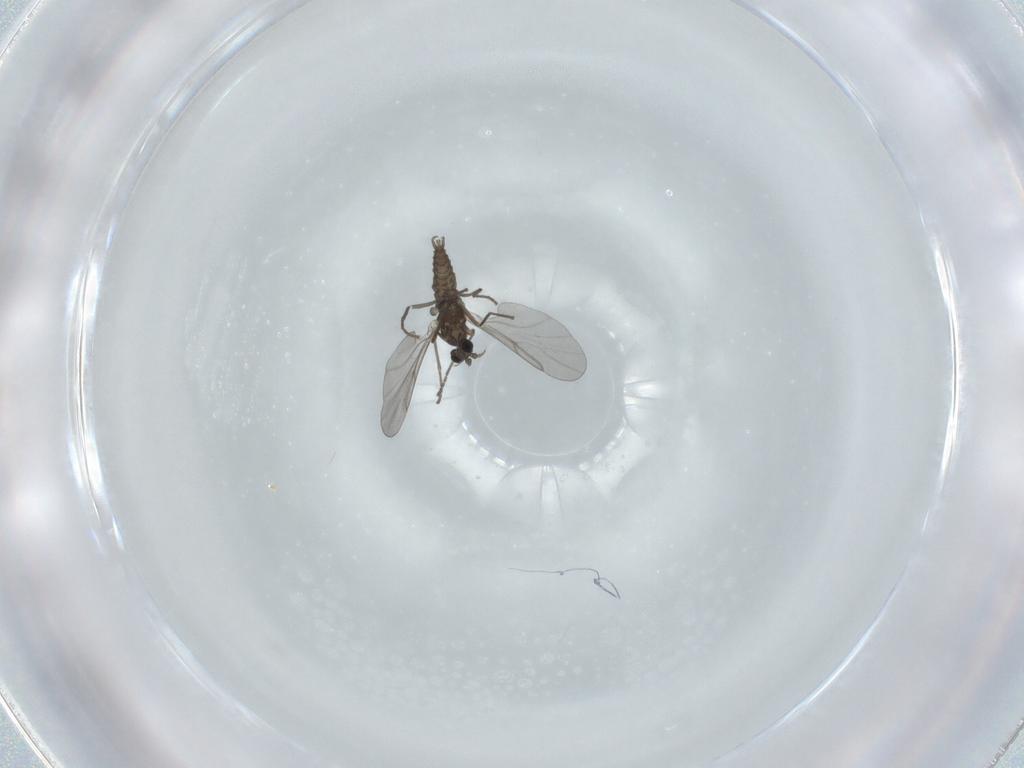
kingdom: Animalia
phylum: Arthropoda
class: Insecta
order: Diptera
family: Cecidomyiidae
